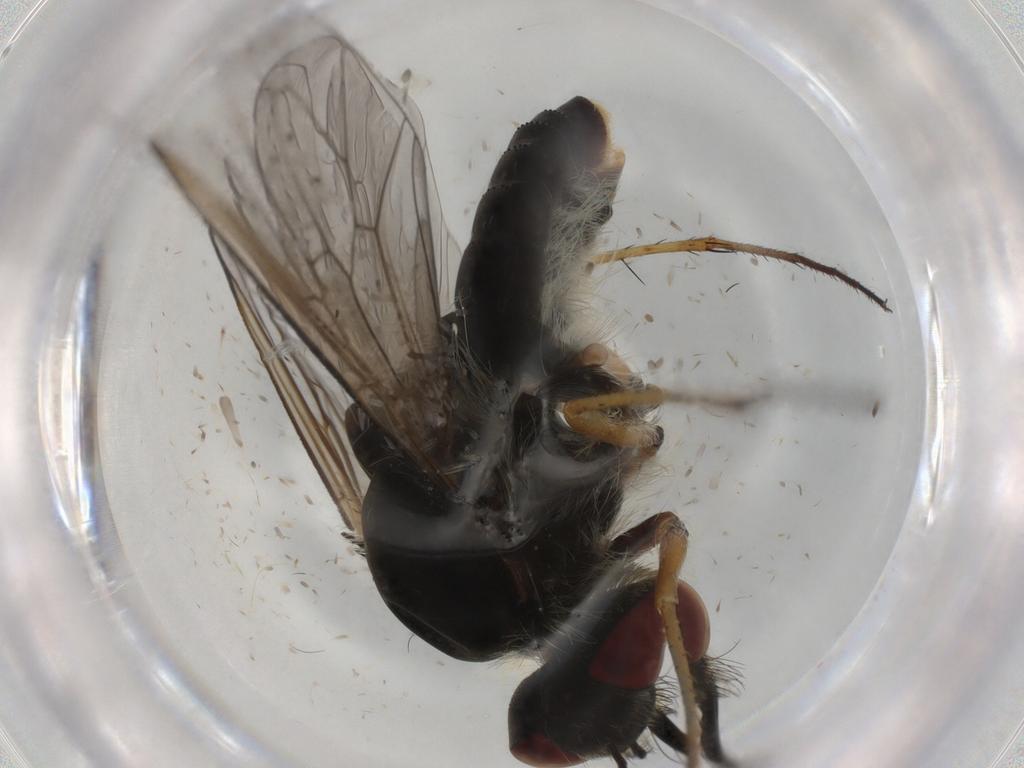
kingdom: Animalia
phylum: Arthropoda
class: Insecta
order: Diptera
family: Bombyliidae
